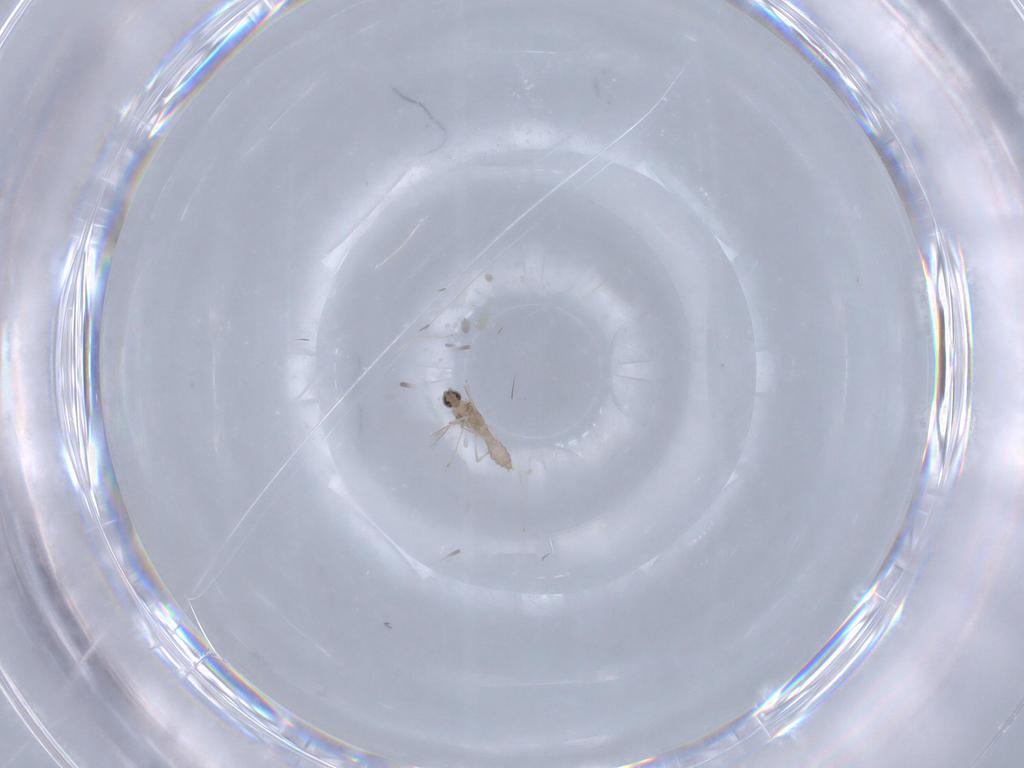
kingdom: Animalia
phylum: Arthropoda
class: Insecta
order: Diptera
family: Cecidomyiidae
